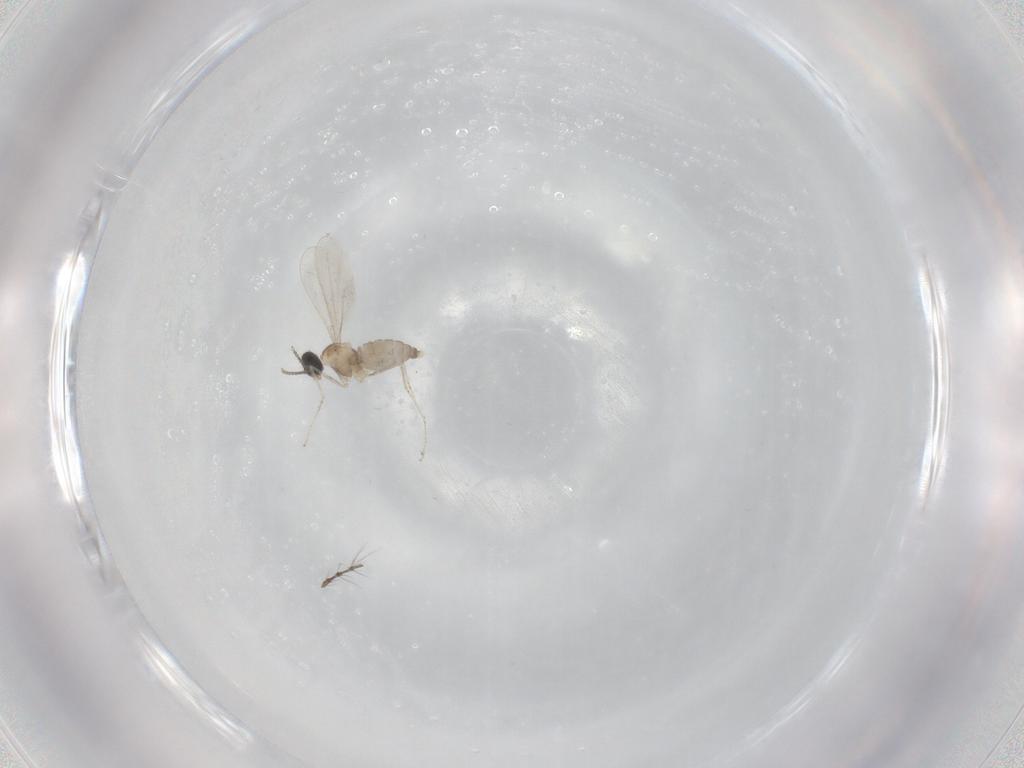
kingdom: Animalia
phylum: Arthropoda
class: Insecta
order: Diptera
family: Cecidomyiidae
